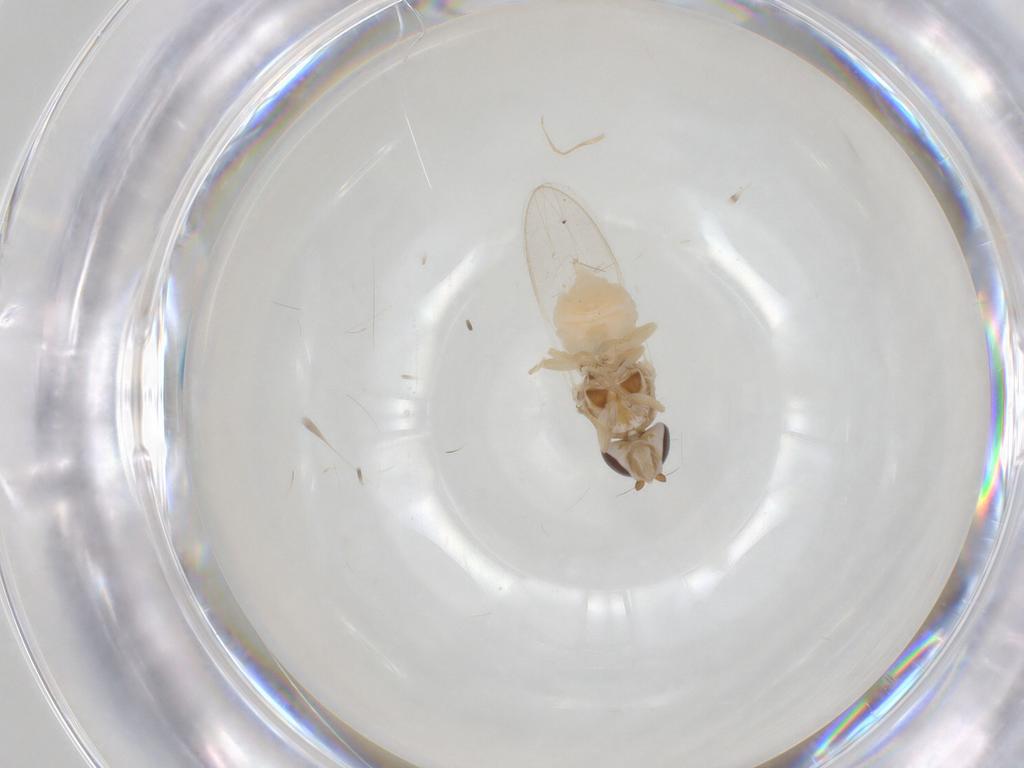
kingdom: Animalia
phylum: Arthropoda
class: Insecta
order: Diptera
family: Chloropidae
